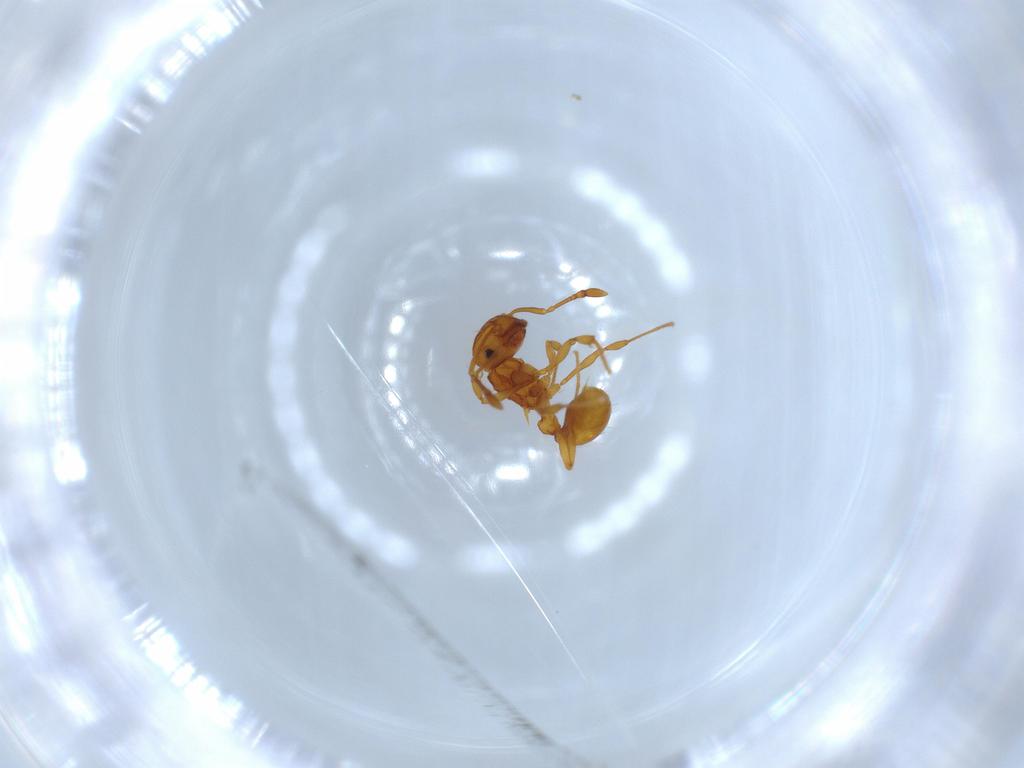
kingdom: Animalia
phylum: Arthropoda
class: Insecta
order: Hymenoptera
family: Formicidae
